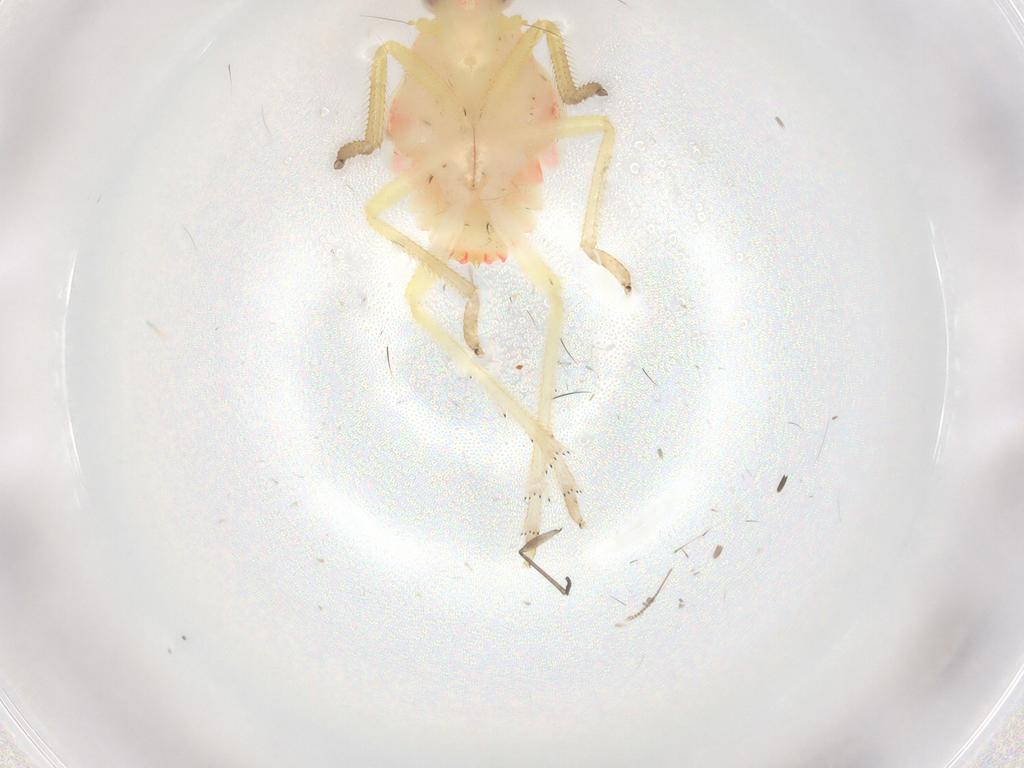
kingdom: Animalia
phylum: Arthropoda
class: Insecta
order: Hemiptera
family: Tropiduchidae
